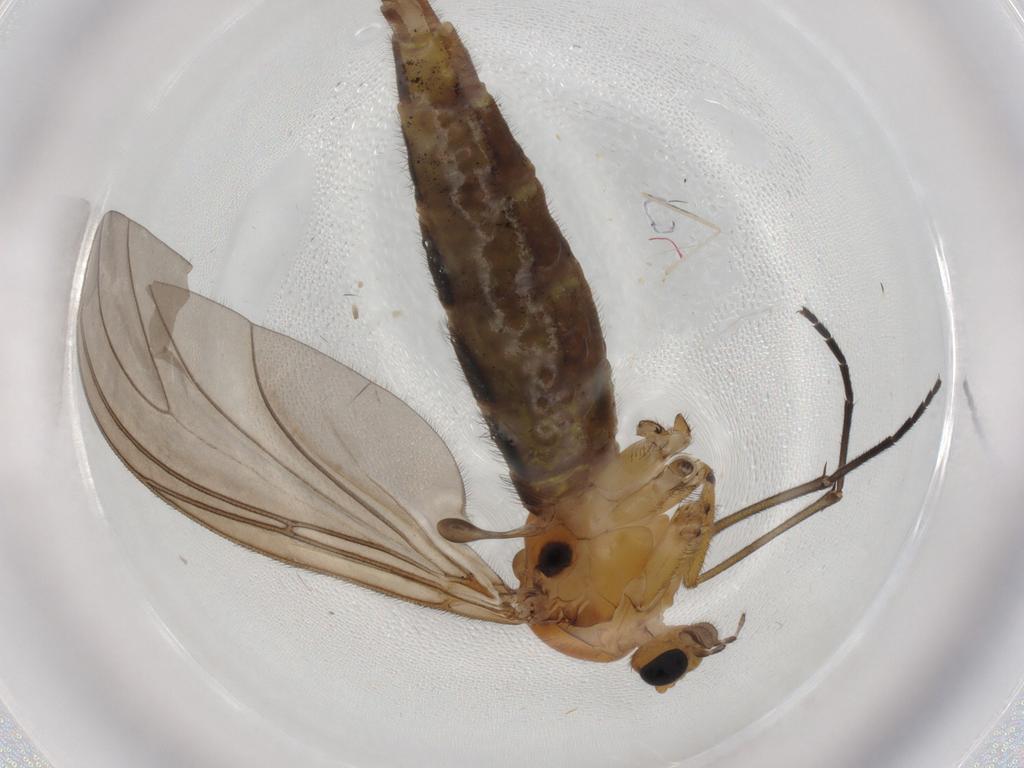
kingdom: Animalia
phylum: Arthropoda
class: Insecta
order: Diptera
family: Sciaridae
